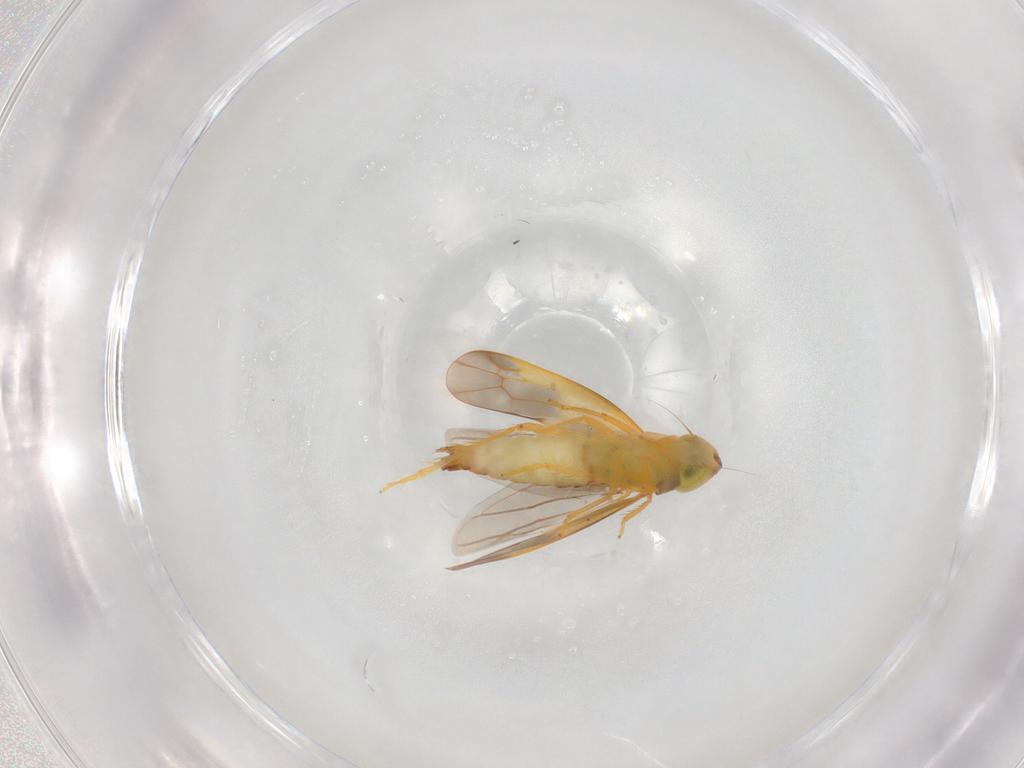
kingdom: Animalia
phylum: Arthropoda
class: Insecta
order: Hemiptera
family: Cicadellidae
